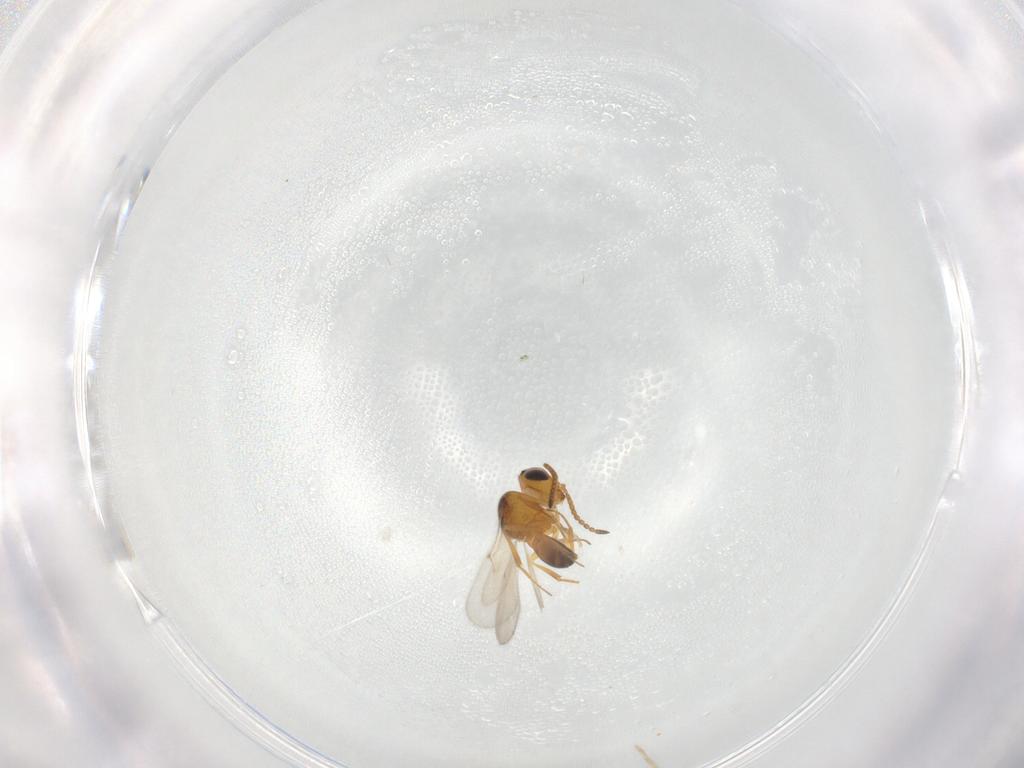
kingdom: Animalia
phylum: Arthropoda
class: Insecta
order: Hymenoptera
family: Scelionidae
